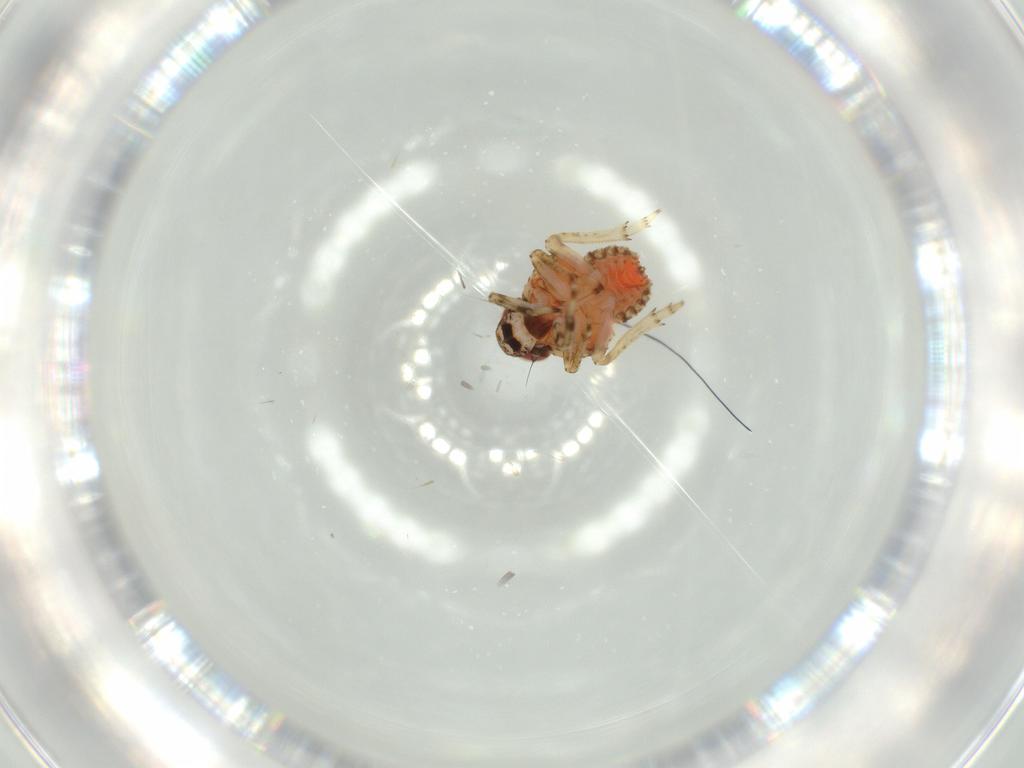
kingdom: Animalia
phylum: Arthropoda
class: Insecta
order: Hemiptera
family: Issidae
